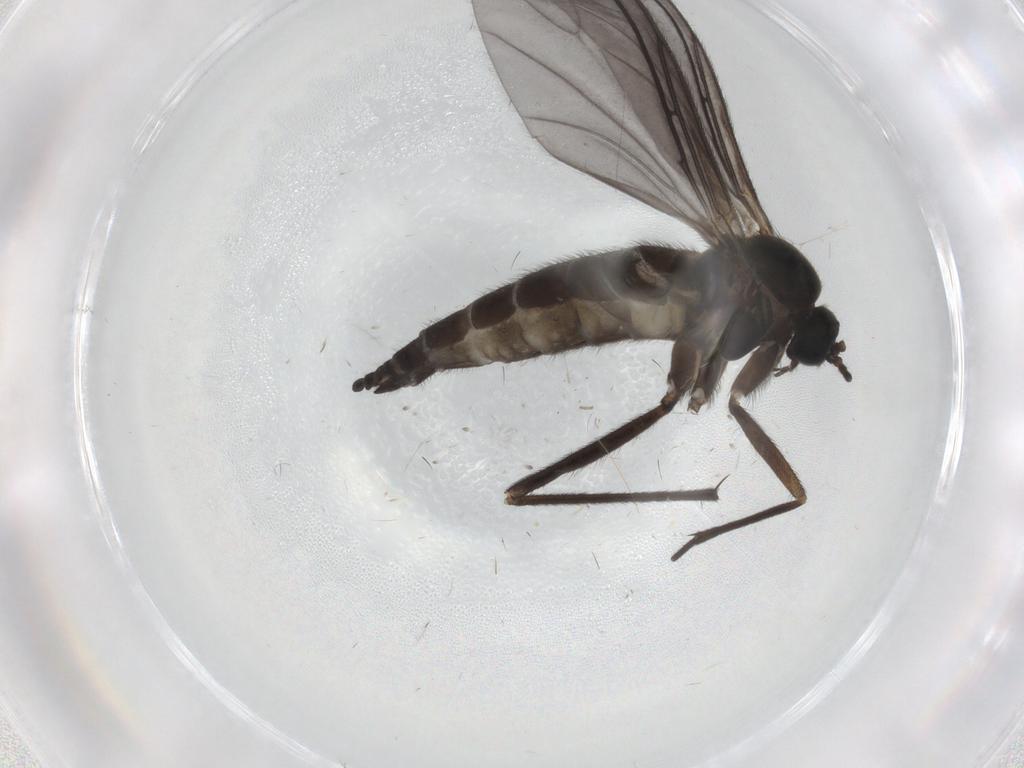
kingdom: Animalia
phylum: Arthropoda
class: Insecta
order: Diptera
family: Sciaridae
